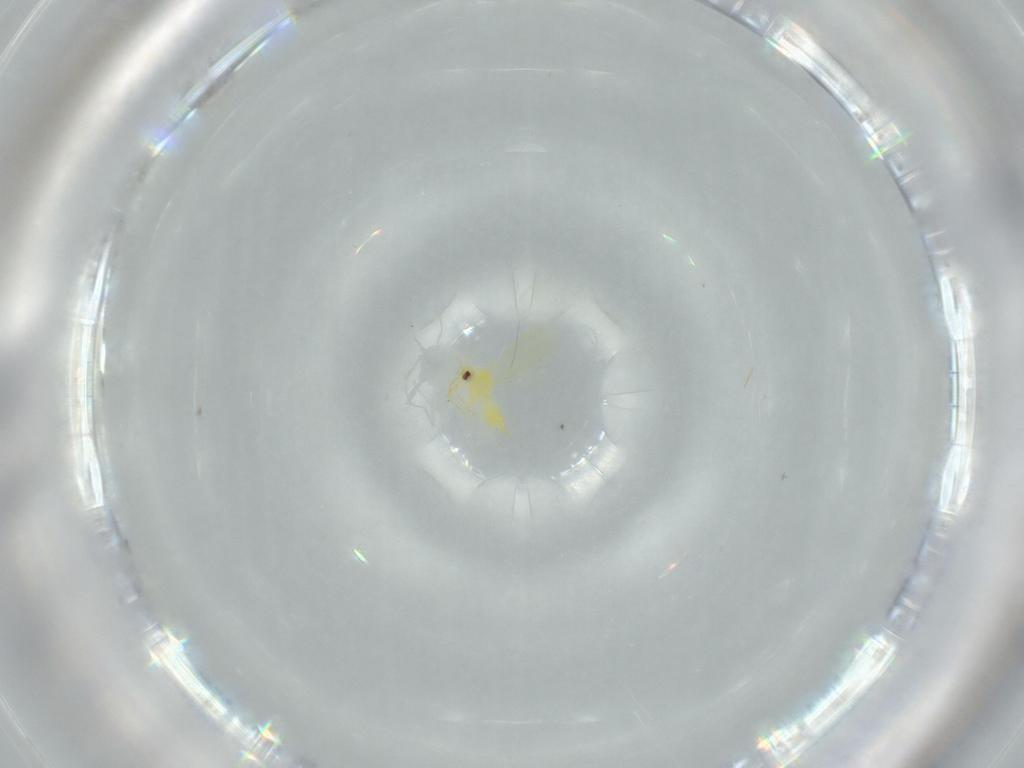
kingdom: Animalia
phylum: Arthropoda
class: Insecta
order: Hemiptera
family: Aleyrodidae
